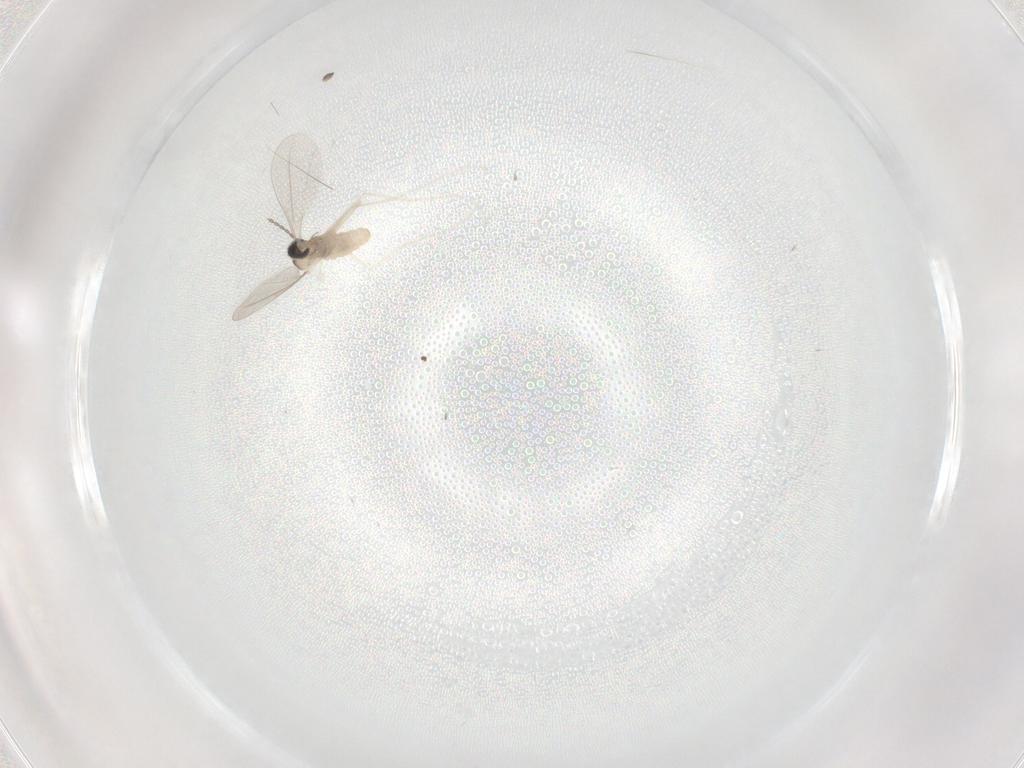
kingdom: Animalia
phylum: Arthropoda
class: Insecta
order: Diptera
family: Cecidomyiidae
